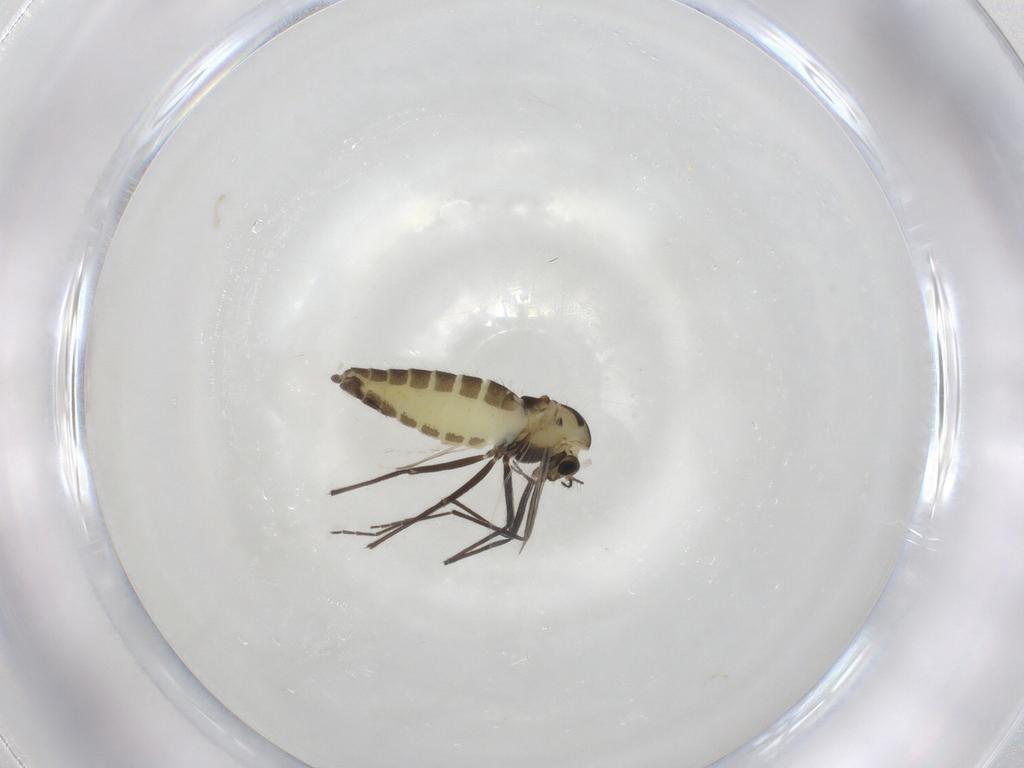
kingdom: Animalia
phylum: Arthropoda
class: Insecta
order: Diptera
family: Chironomidae
